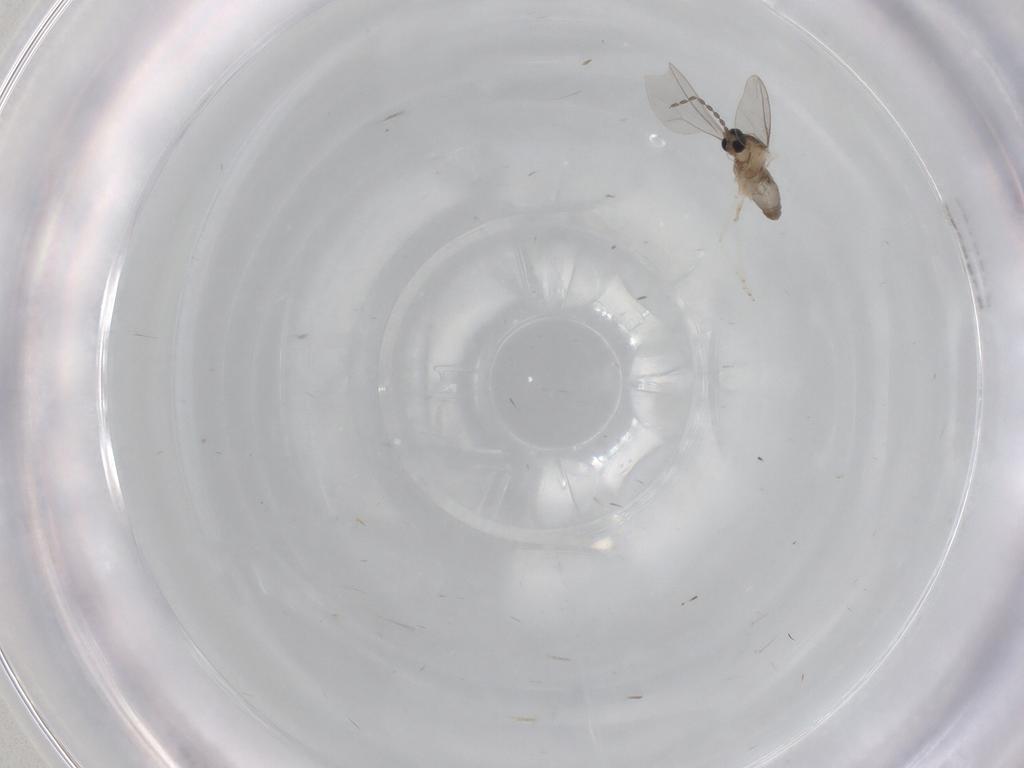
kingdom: Animalia
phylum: Arthropoda
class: Insecta
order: Diptera
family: Sciaridae
